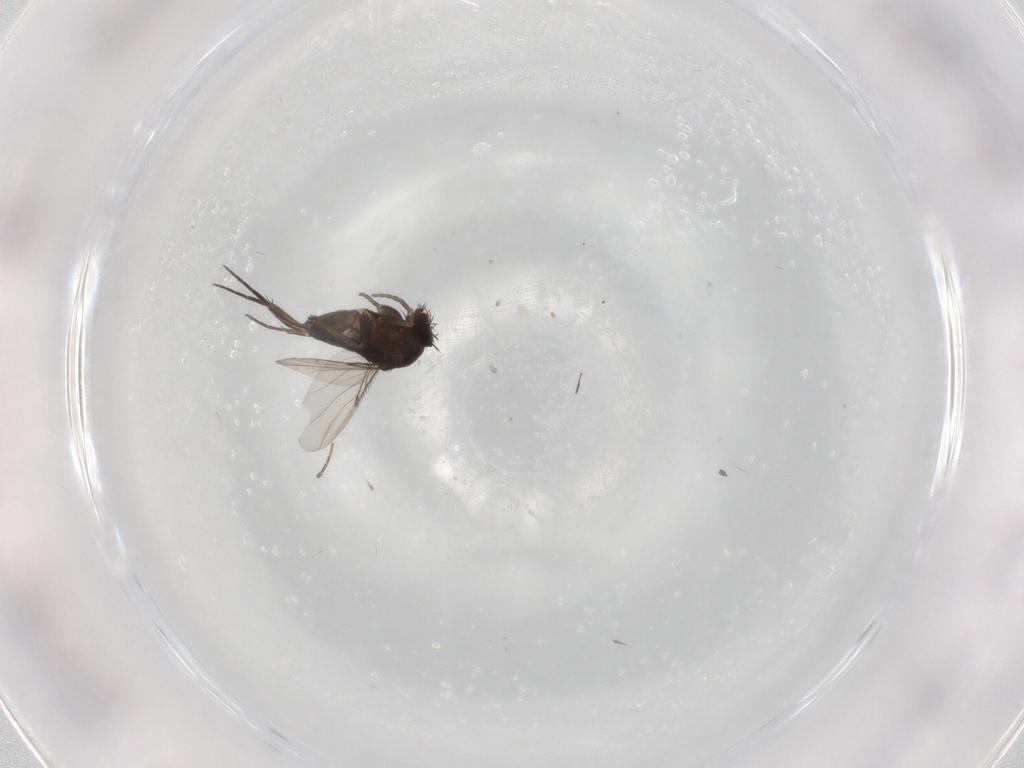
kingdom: Animalia
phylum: Arthropoda
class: Insecta
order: Diptera
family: Phoridae
